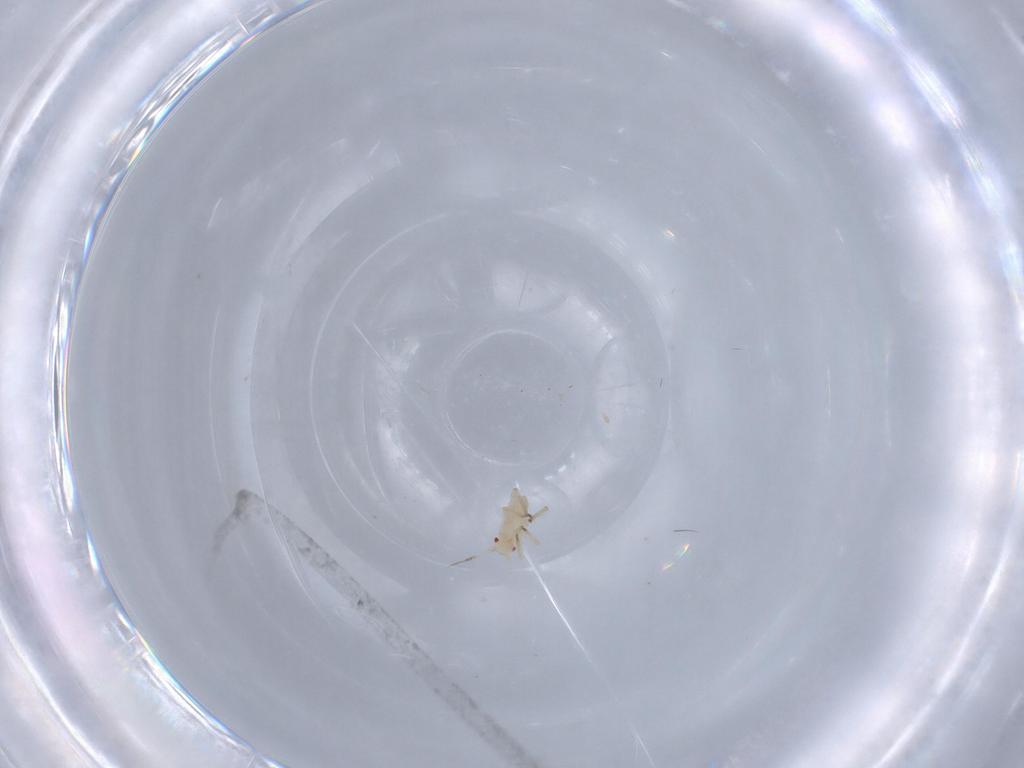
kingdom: Animalia
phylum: Arthropoda
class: Insecta
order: Hemiptera
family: Aphididae
